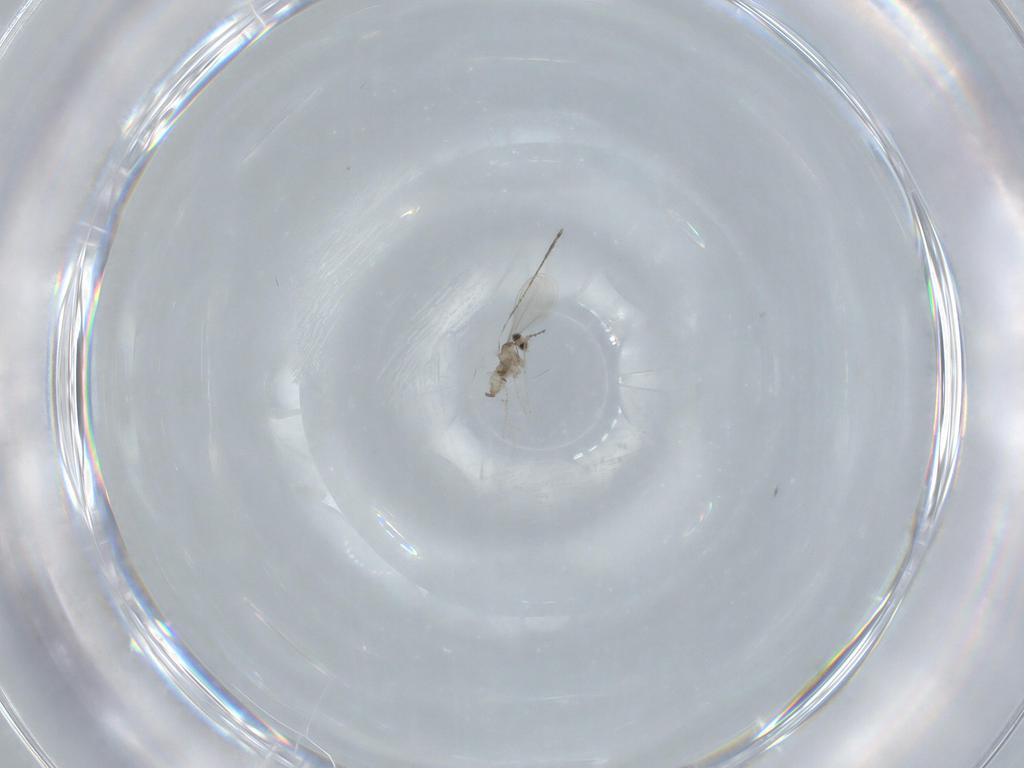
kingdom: Animalia
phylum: Arthropoda
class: Insecta
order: Diptera
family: Cecidomyiidae
